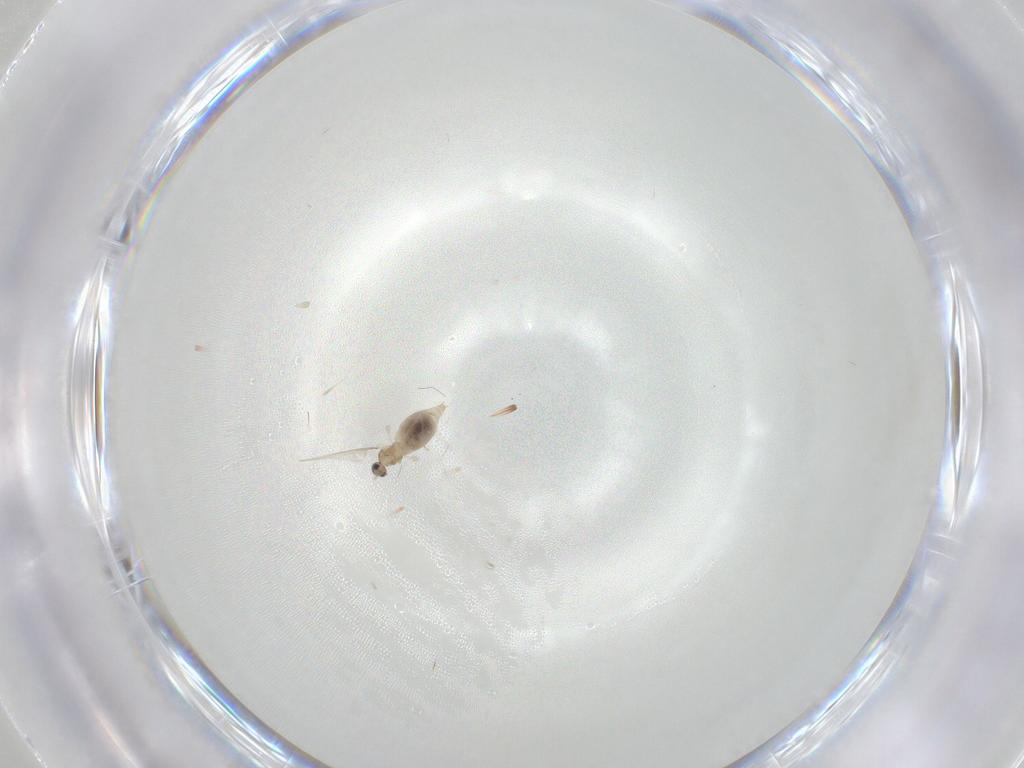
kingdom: Animalia
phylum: Arthropoda
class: Insecta
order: Diptera
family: Cecidomyiidae
